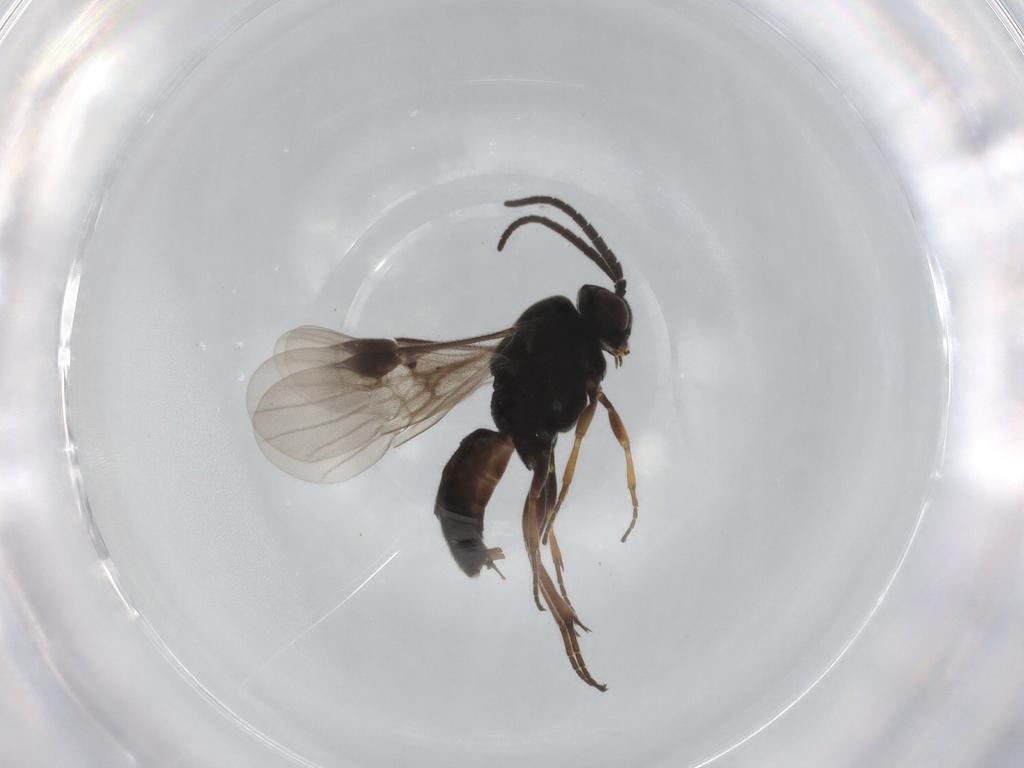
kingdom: Animalia
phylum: Arthropoda
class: Insecta
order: Hymenoptera
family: Braconidae
